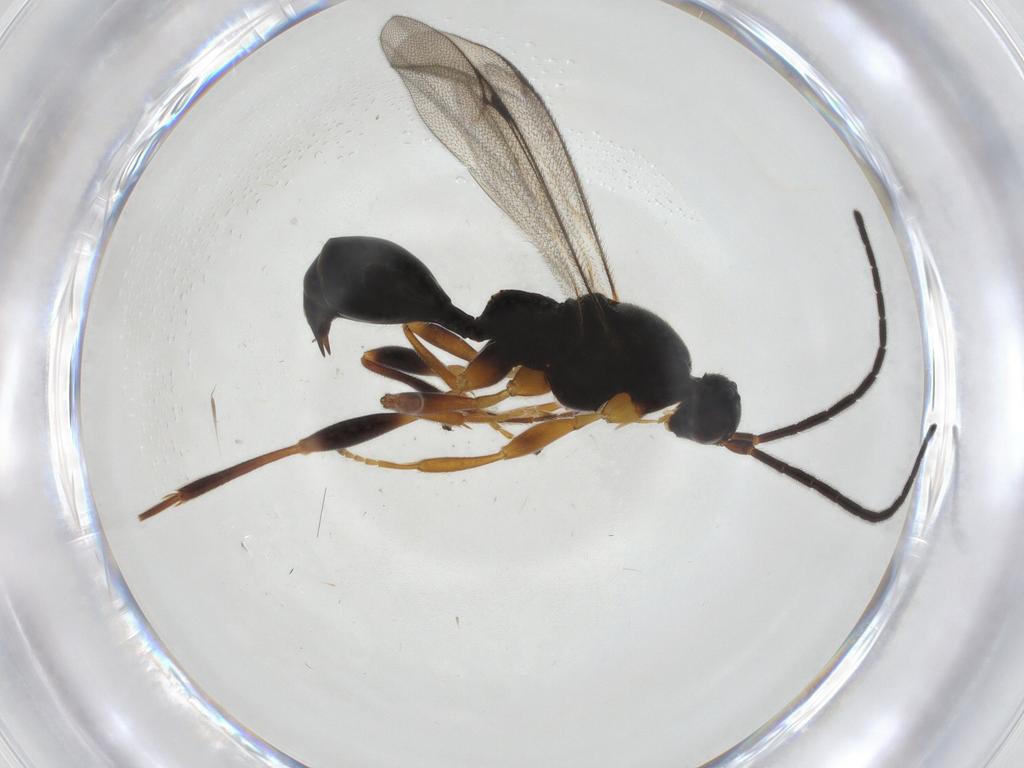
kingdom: Animalia
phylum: Arthropoda
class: Insecta
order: Hymenoptera
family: Proctotrupidae
